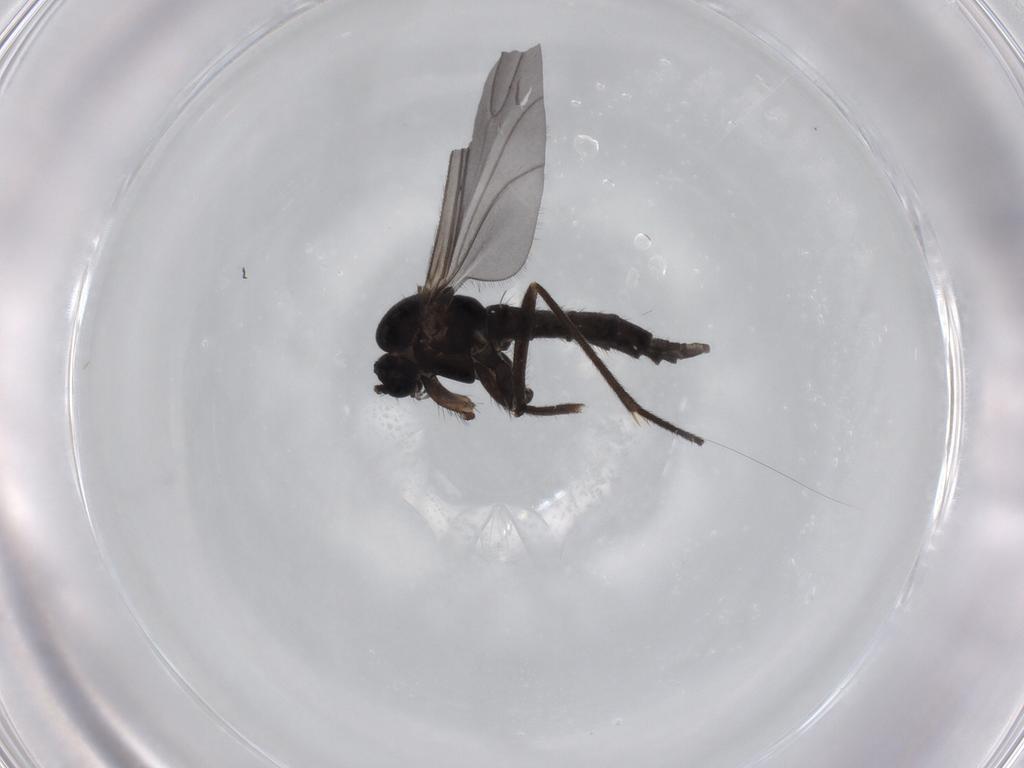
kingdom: Animalia
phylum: Arthropoda
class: Insecta
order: Diptera
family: Sciaridae
